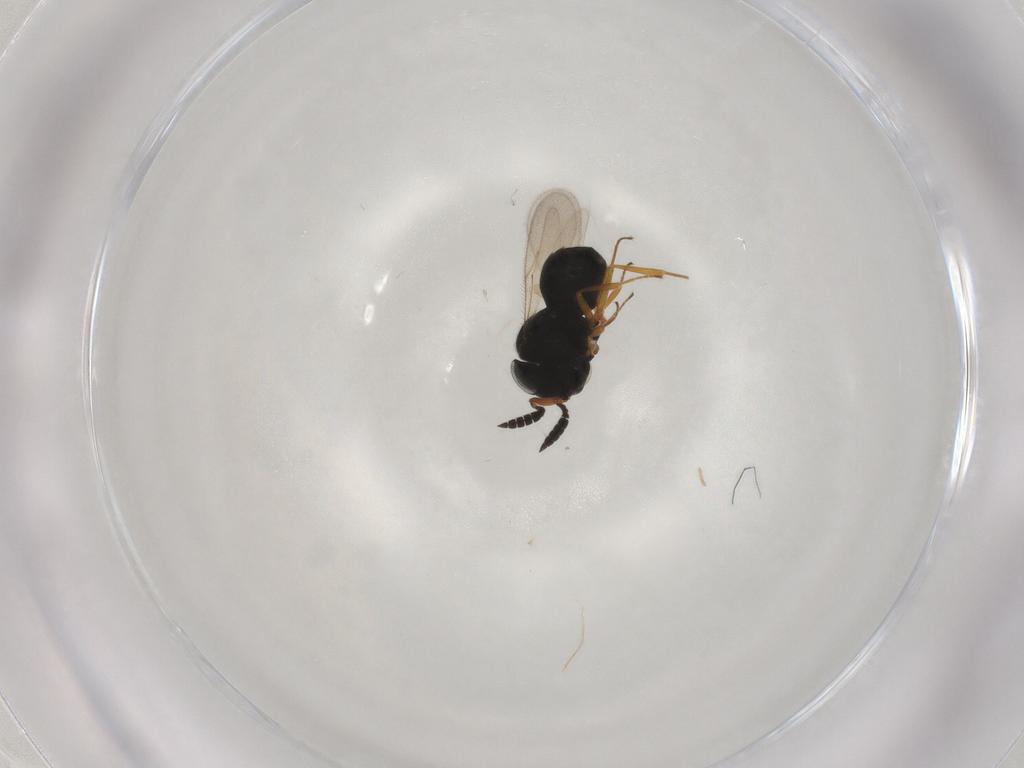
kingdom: Animalia
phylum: Arthropoda
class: Insecta
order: Hymenoptera
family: Scelionidae
